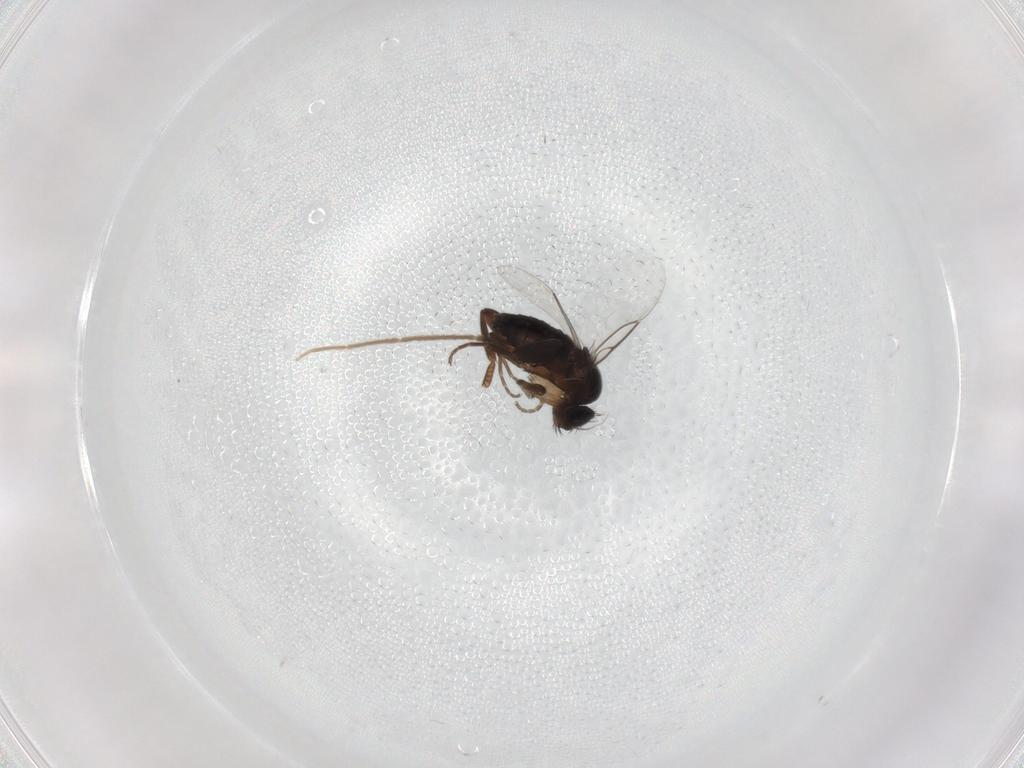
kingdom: Animalia
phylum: Arthropoda
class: Insecta
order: Diptera
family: Phoridae
